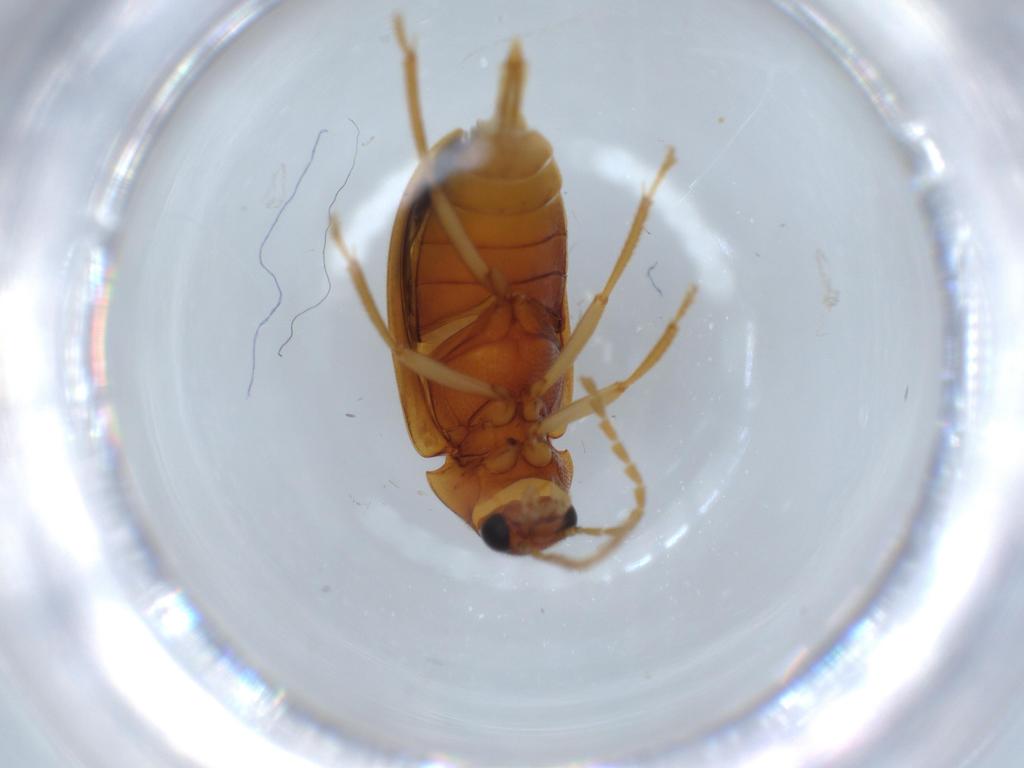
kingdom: Animalia
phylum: Arthropoda
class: Insecta
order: Coleoptera
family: Ptilodactylidae
